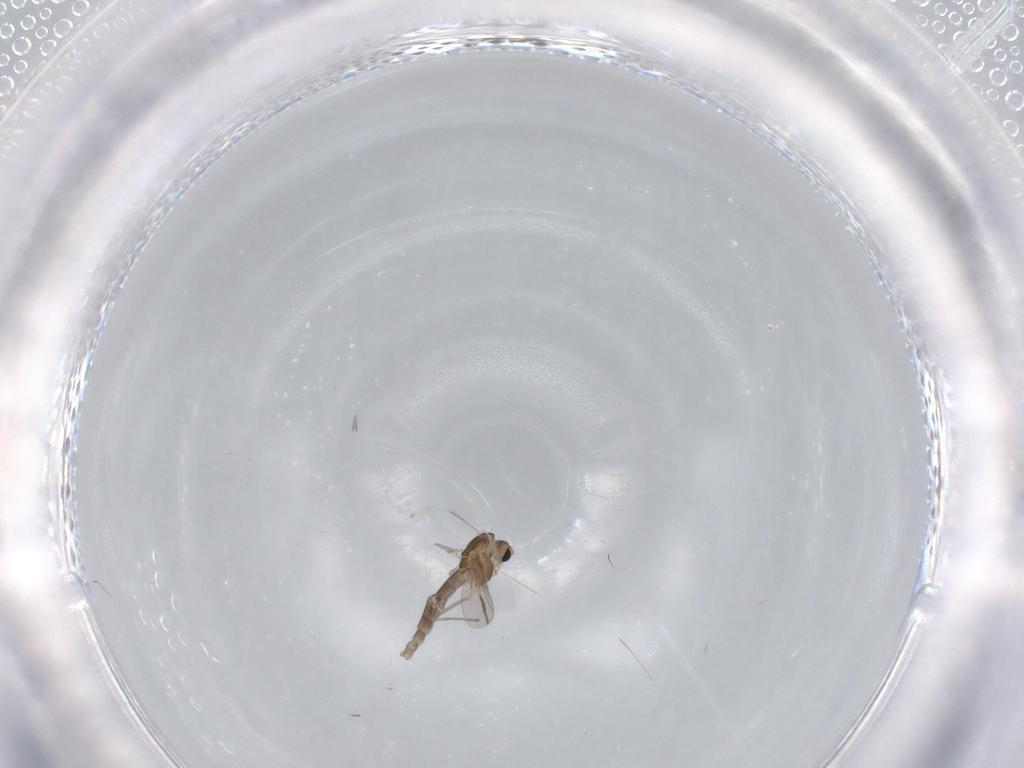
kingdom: Animalia
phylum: Arthropoda
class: Insecta
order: Diptera
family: Chironomidae
